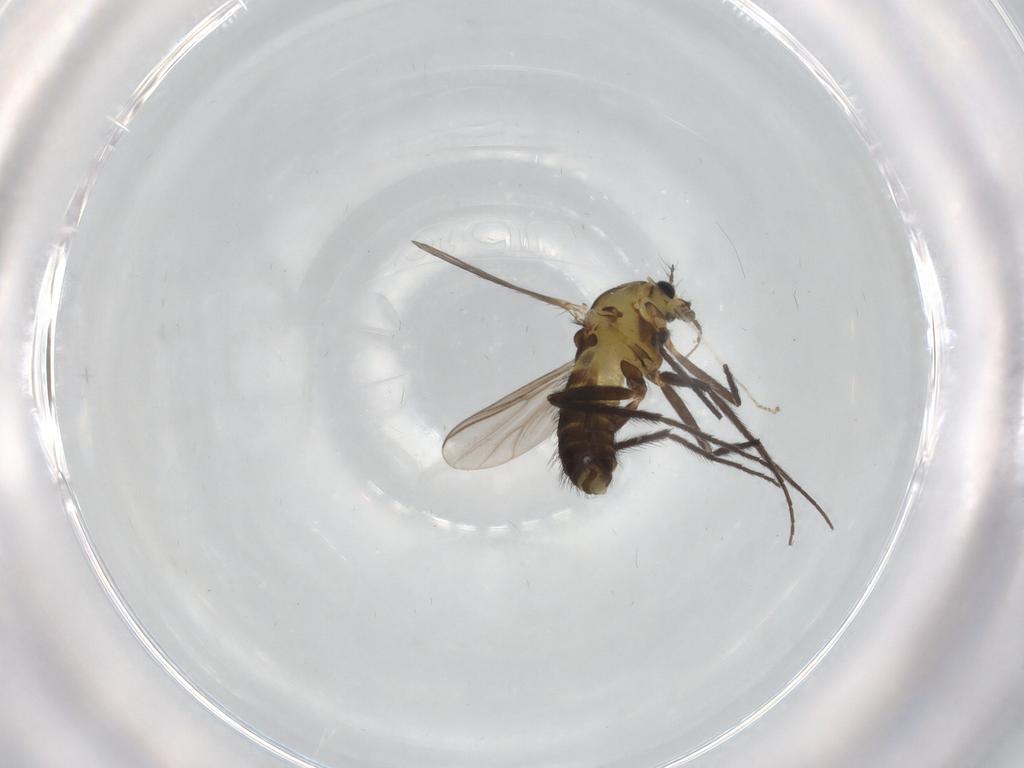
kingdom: Animalia
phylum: Arthropoda
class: Insecta
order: Diptera
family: Chironomidae
